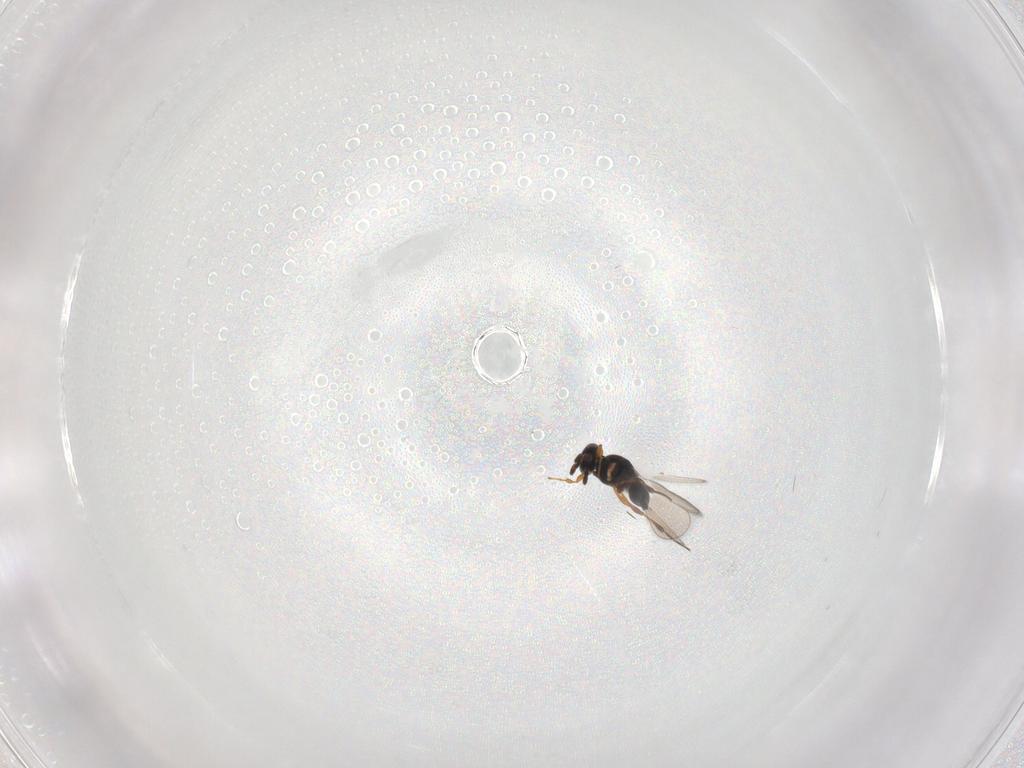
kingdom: Animalia
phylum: Arthropoda
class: Insecta
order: Hymenoptera
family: Platygastridae
